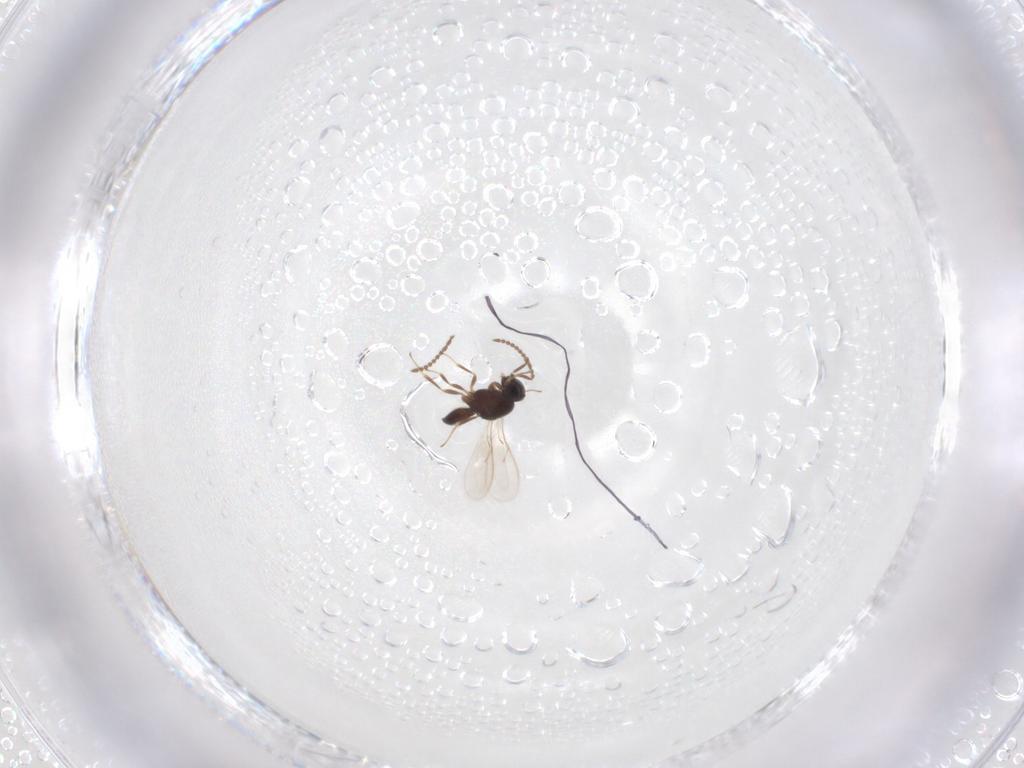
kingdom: Animalia
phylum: Arthropoda
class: Insecta
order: Hymenoptera
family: Scelionidae
